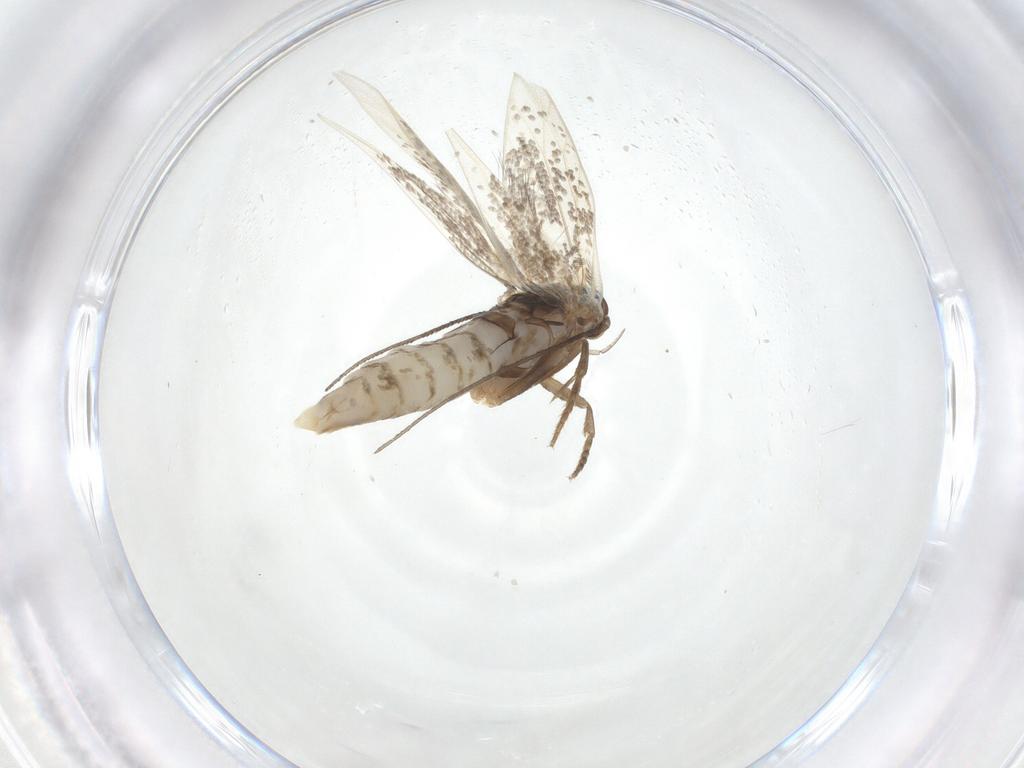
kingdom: Animalia
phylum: Arthropoda
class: Insecta
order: Lepidoptera
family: Elachistidae
